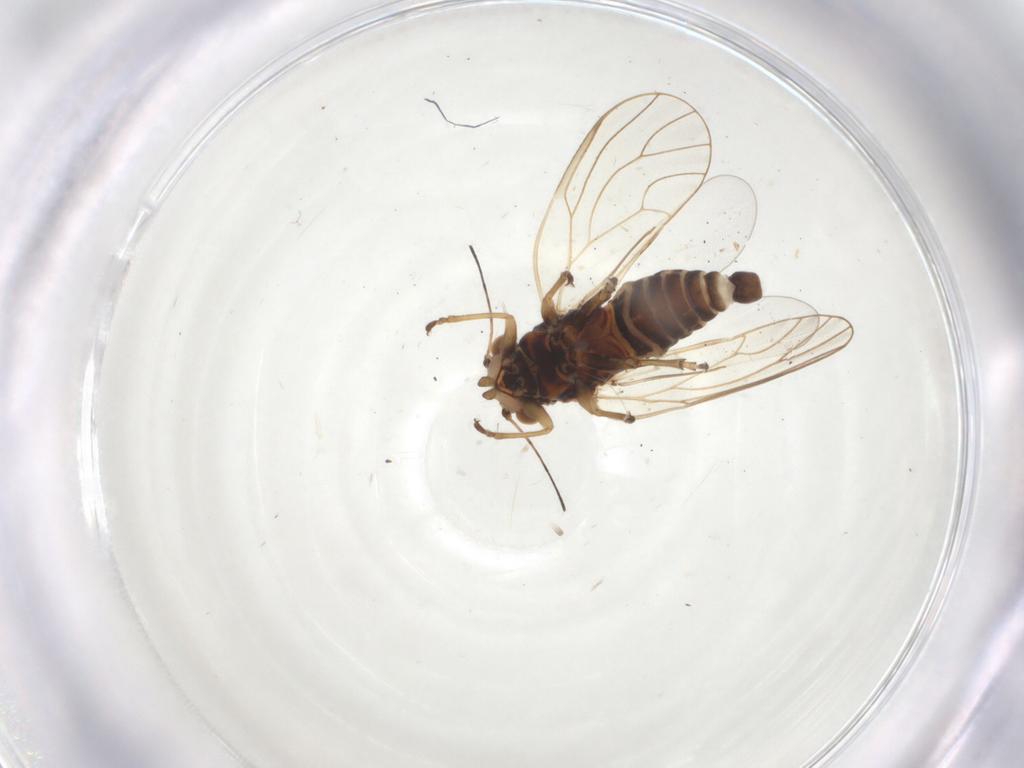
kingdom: Animalia
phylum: Arthropoda
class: Insecta
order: Hemiptera
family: Psyllidae
